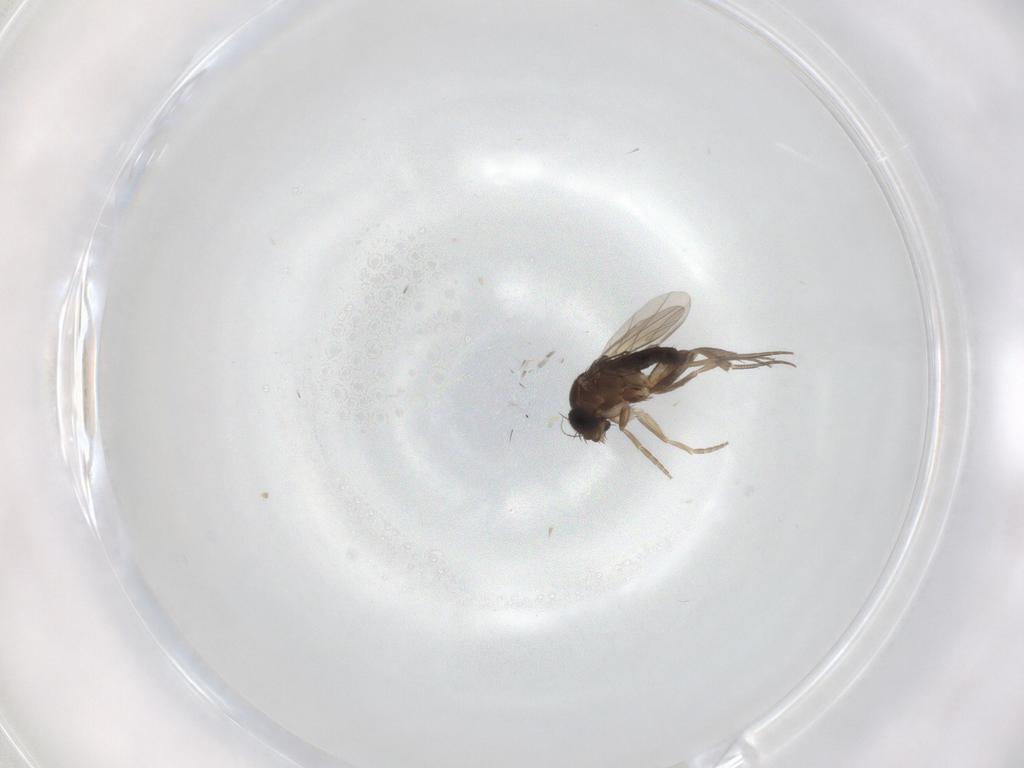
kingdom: Animalia
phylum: Arthropoda
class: Insecta
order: Diptera
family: Phoridae
